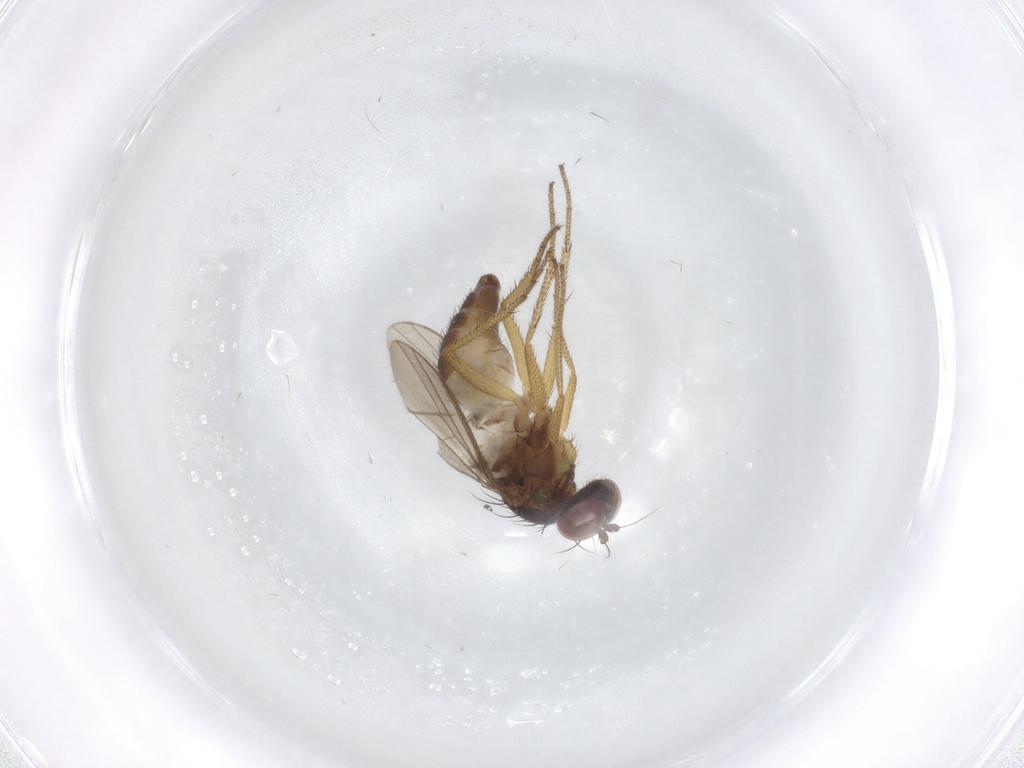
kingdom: Animalia
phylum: Arthropoda
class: Insecta
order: Diptera
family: Dolichopodidae
